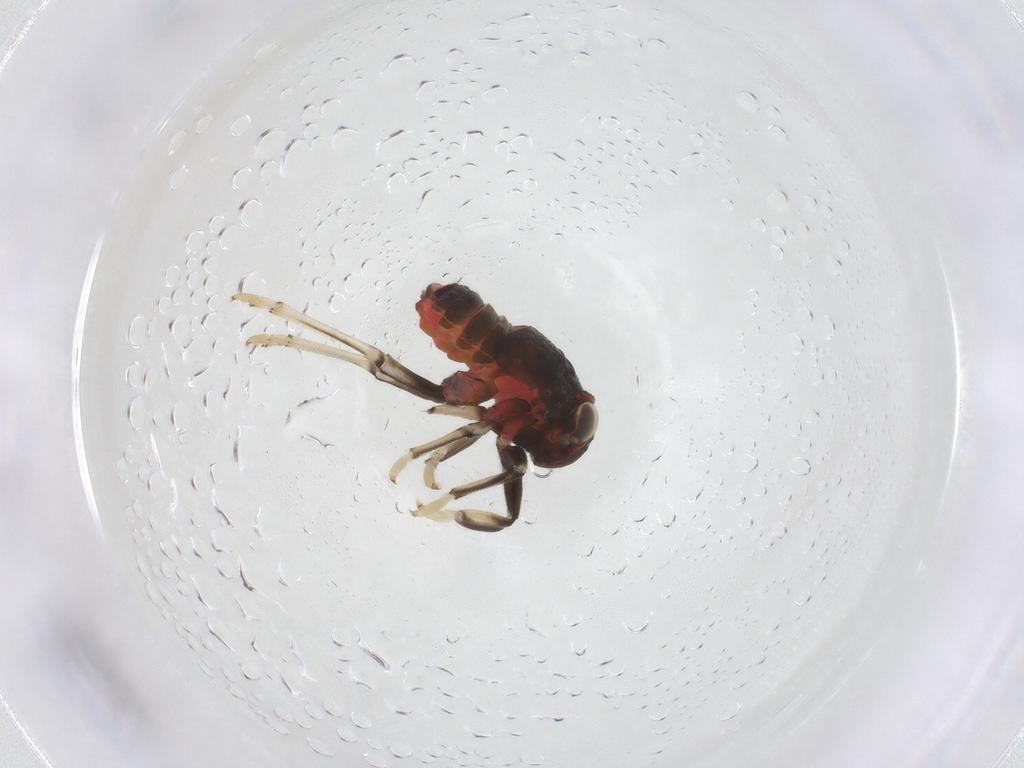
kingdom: Animalia
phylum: Arthropoda
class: Insecta
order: Hemiptera
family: Issidae
